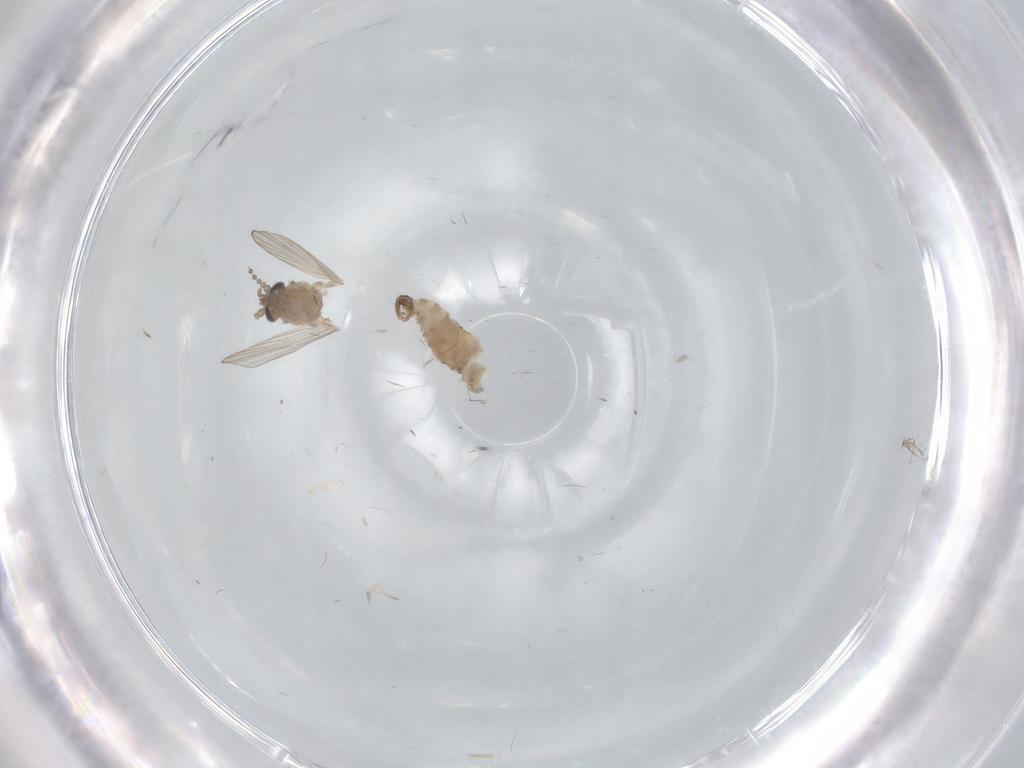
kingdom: Animalia
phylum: Arthropoda
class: Insecta
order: Diptera
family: Psychodidae
